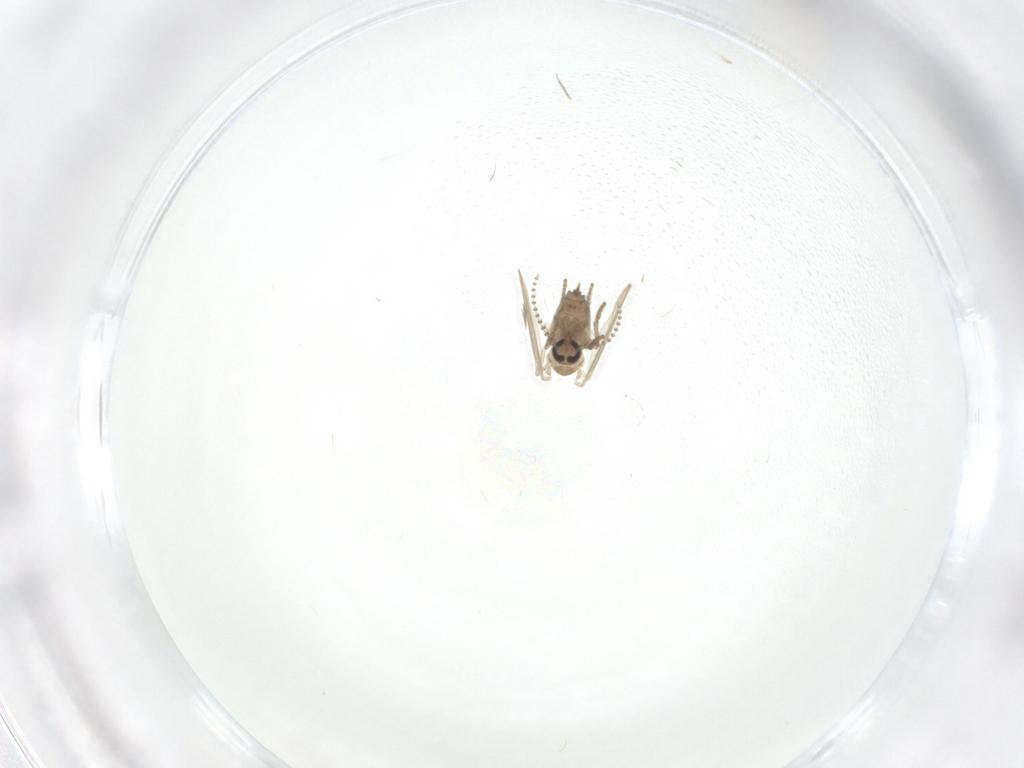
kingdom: Animalia
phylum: Arthropoda
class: Insecta
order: Diptera
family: Psychodidae
